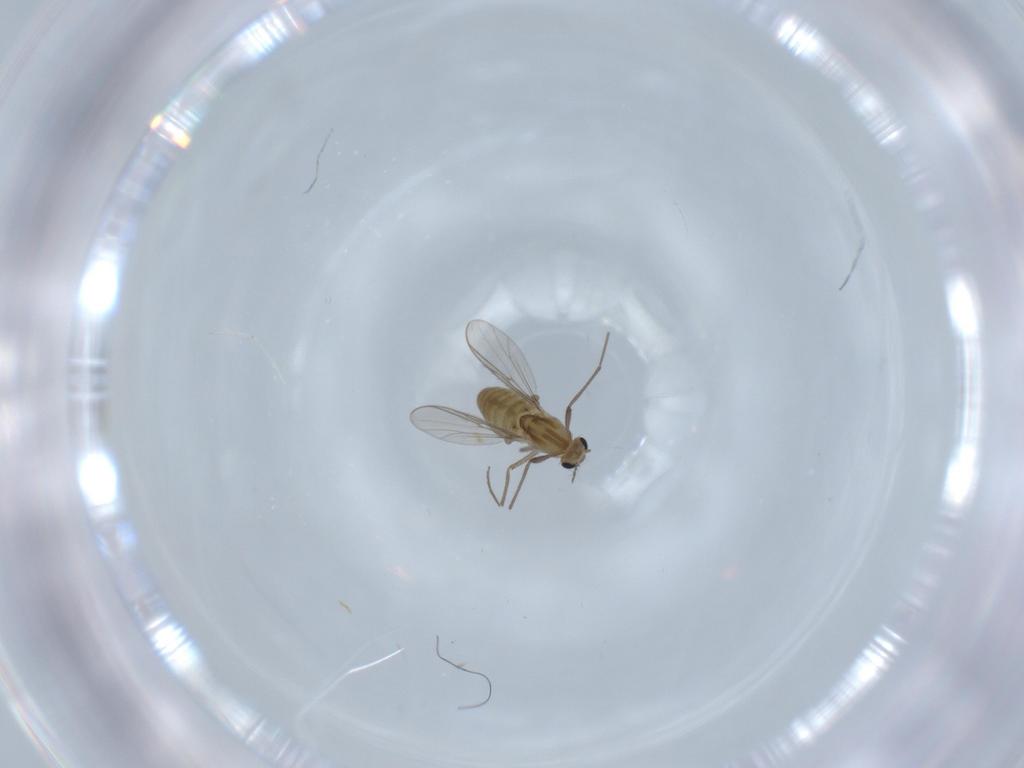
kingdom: Animalia
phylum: Arthropoda
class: Insecta
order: Diptera
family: Chironomidae
